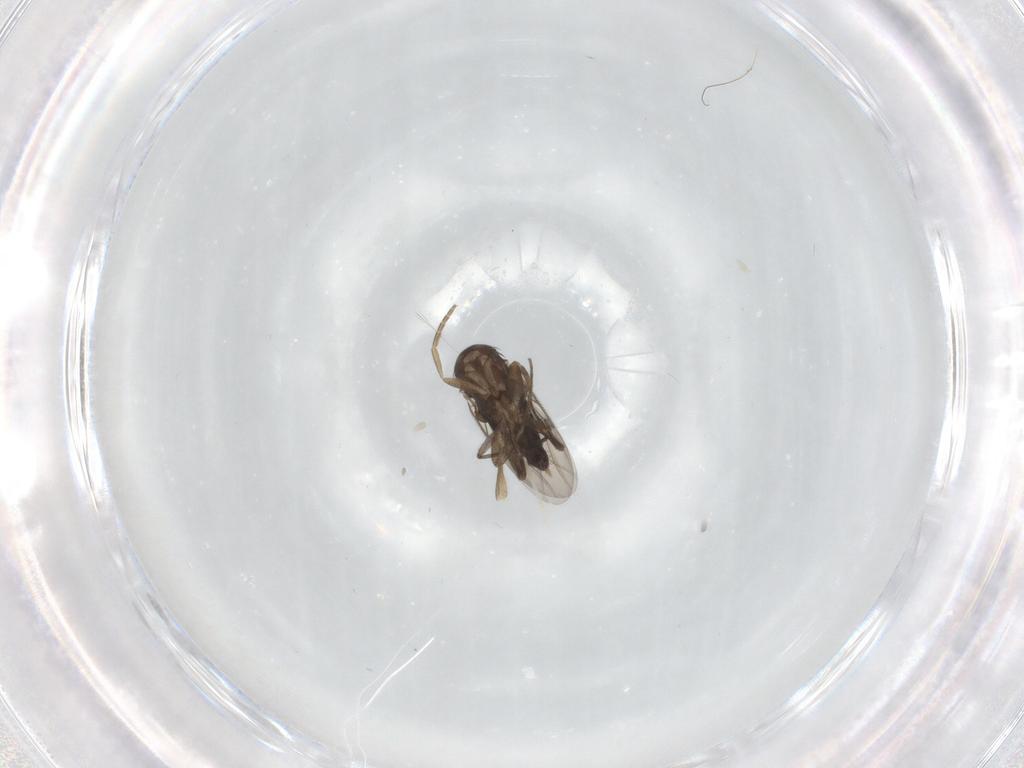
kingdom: Animalia
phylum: Arthropoda
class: Insecta
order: Diptera
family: Phoridae
